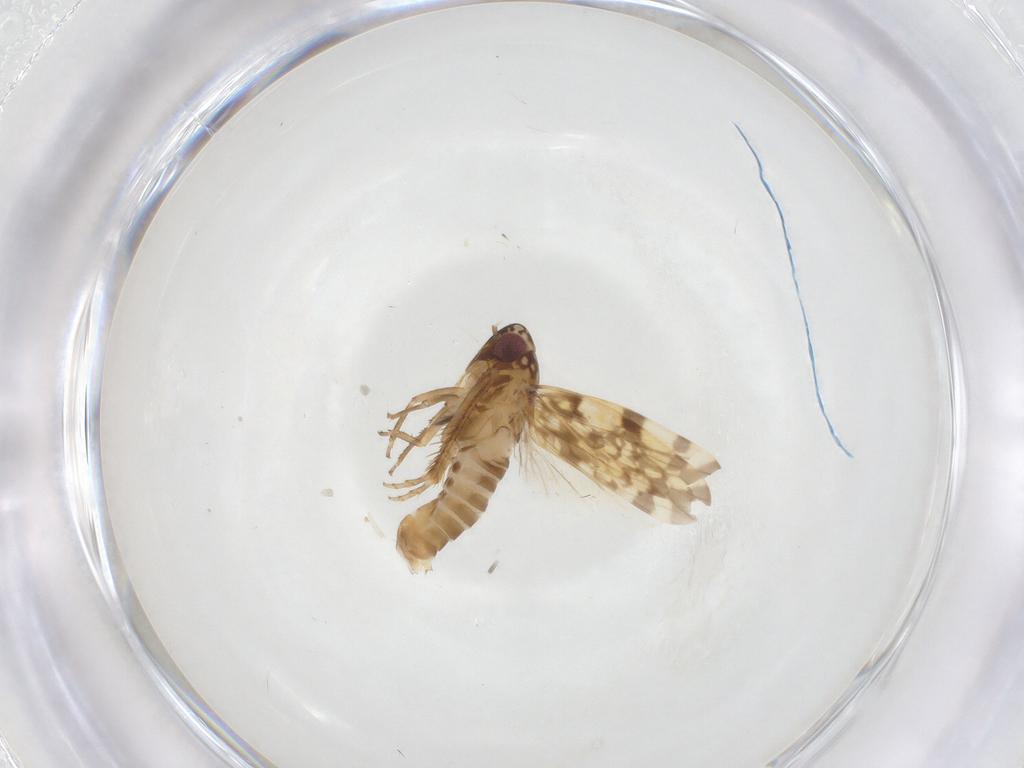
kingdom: Animalia
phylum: Arthropoda
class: Insecta
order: Hemiptera
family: Cicadellidae
